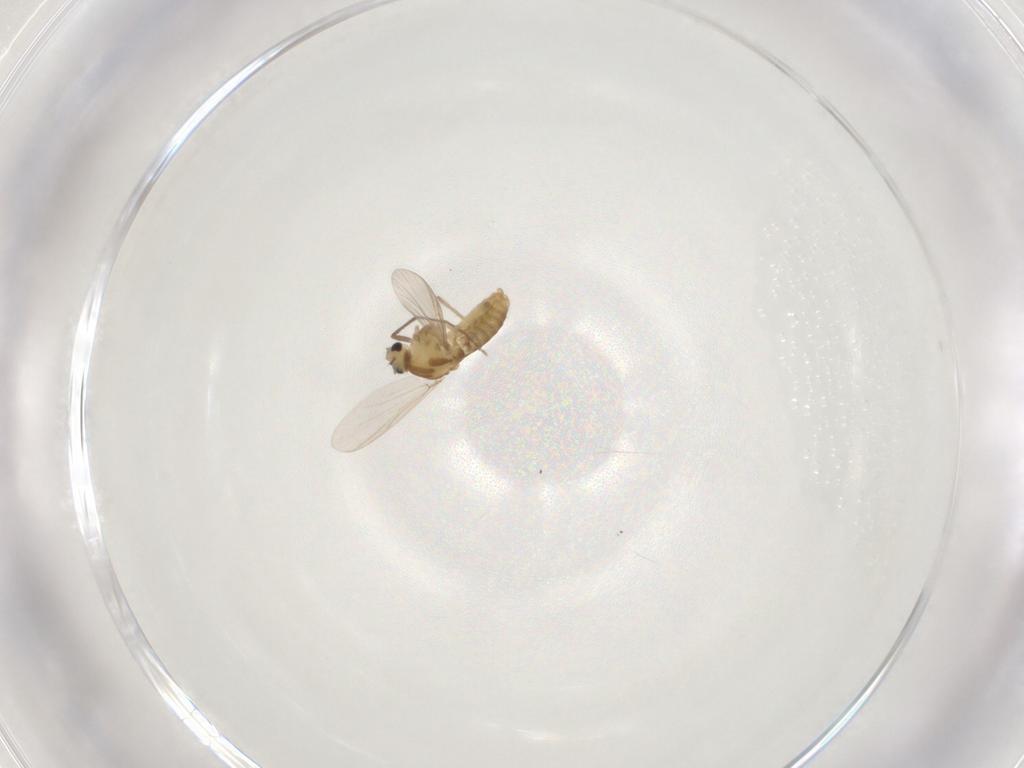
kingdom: Animalia
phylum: Arthropoda
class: Insecta
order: Diptera
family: Chironomidae
